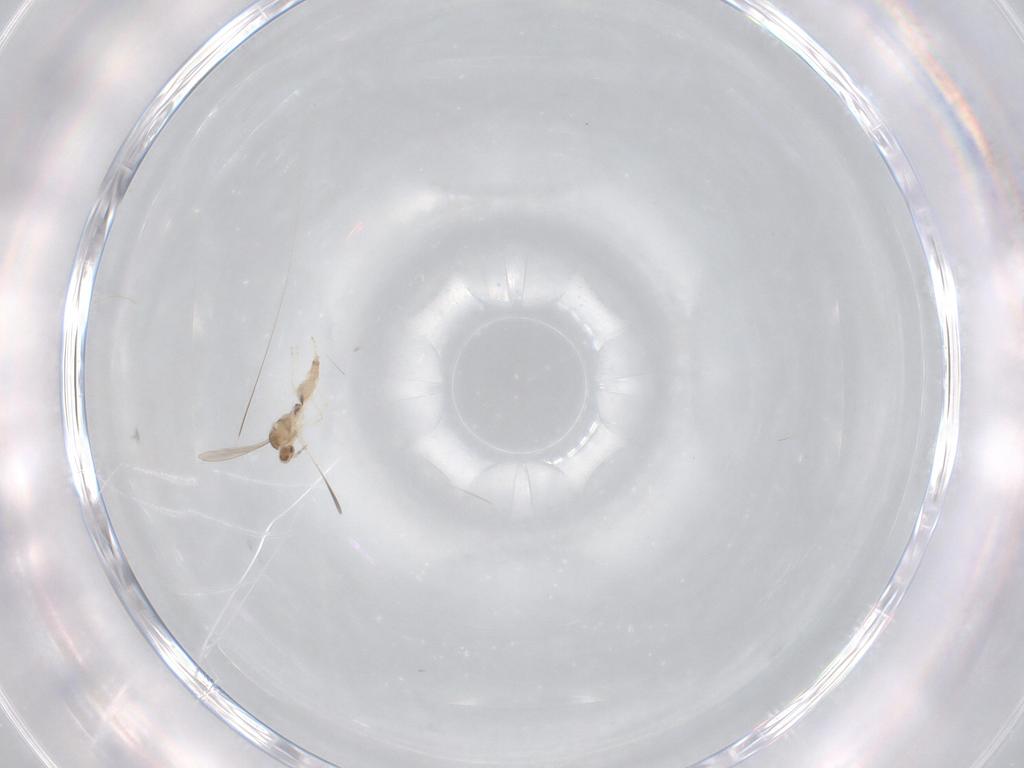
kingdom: Animalia
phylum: Arthropoda
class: Insecta
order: Diptera
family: Cecidomyiidae
